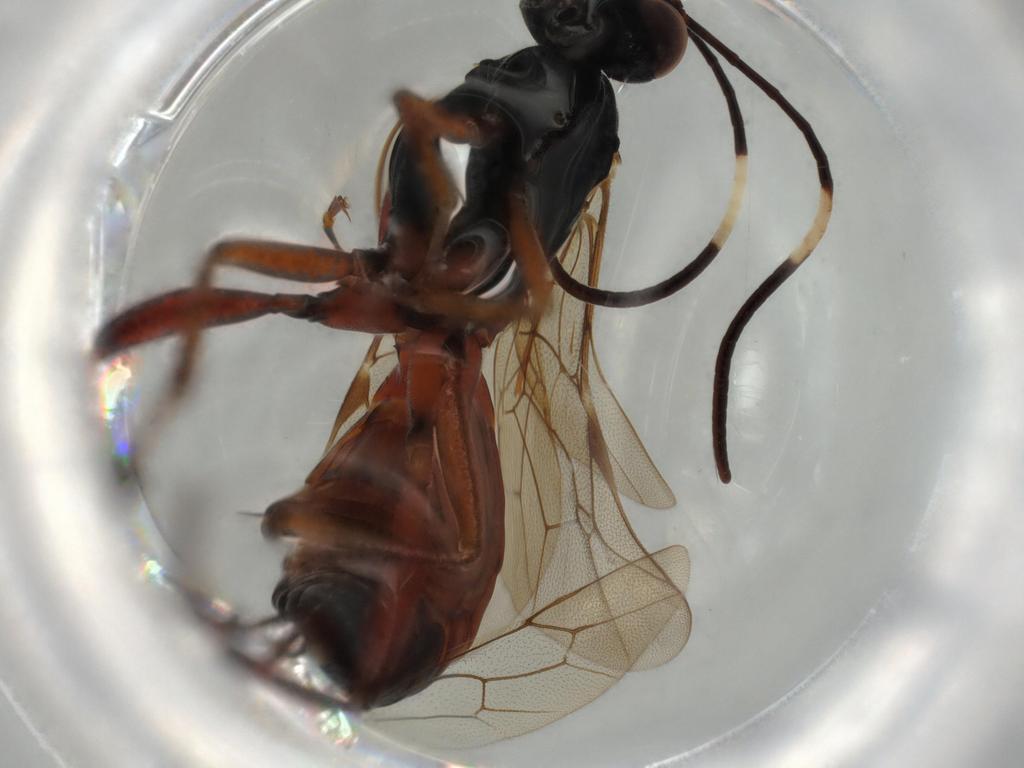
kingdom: Animalia
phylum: Arthropoda
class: Insecta
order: Hymenoptera
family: Ichneumonidae
